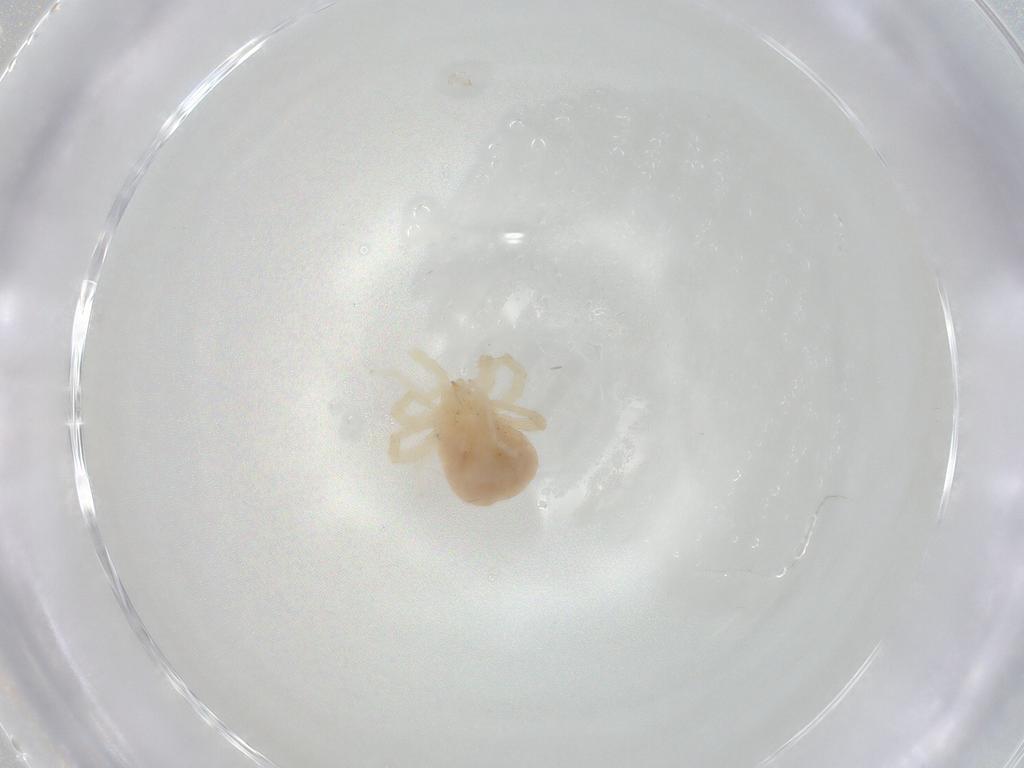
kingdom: Animalia
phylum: Arthropoda
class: Arachnida
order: Trombidiformes
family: Anystidae
